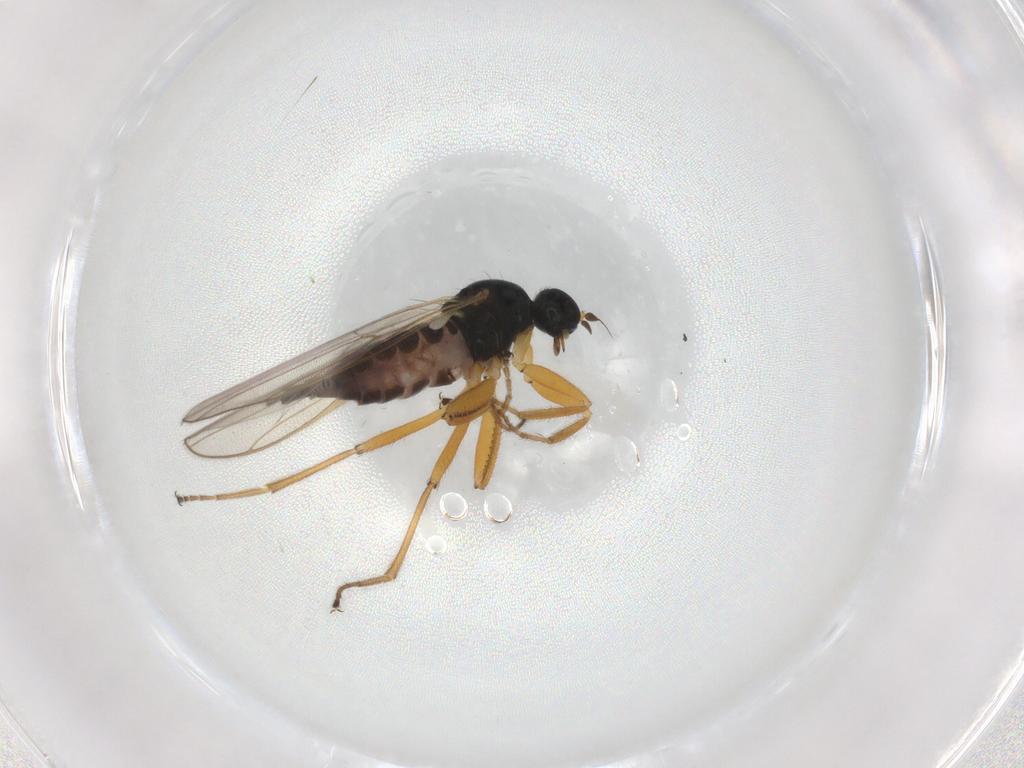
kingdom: Animalia
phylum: Arthropoda
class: Insecta
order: Diptera
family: Hybotidae
